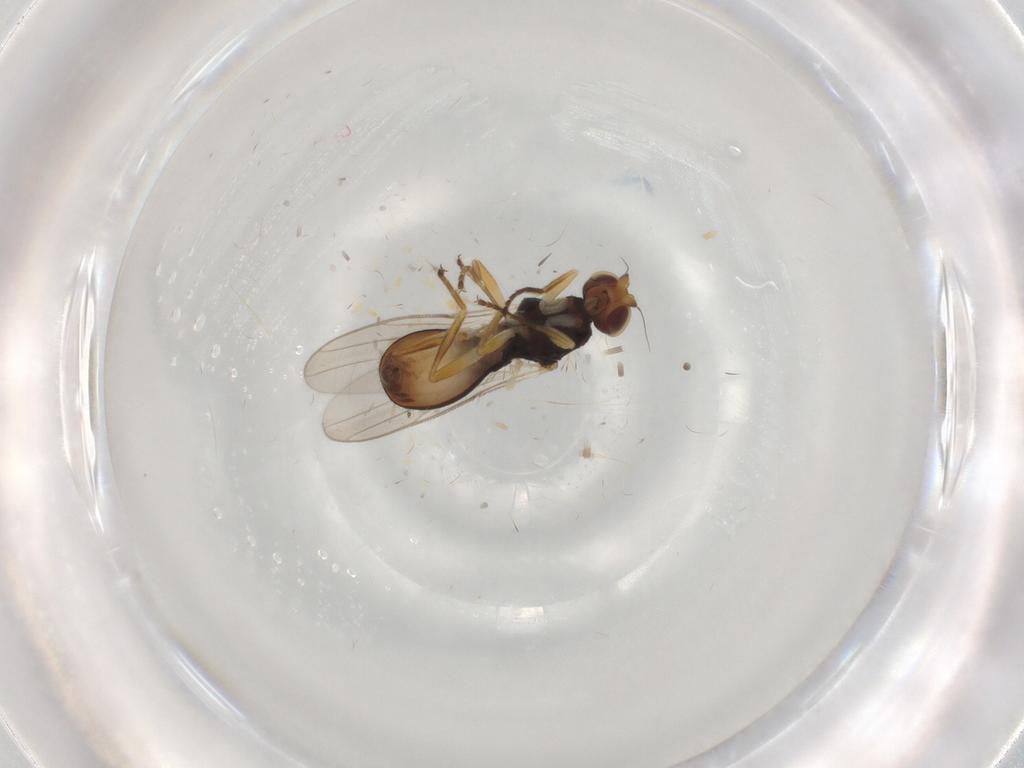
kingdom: Animalia
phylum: Arthropoda
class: Insecta
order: Diptera
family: Chloropidae
